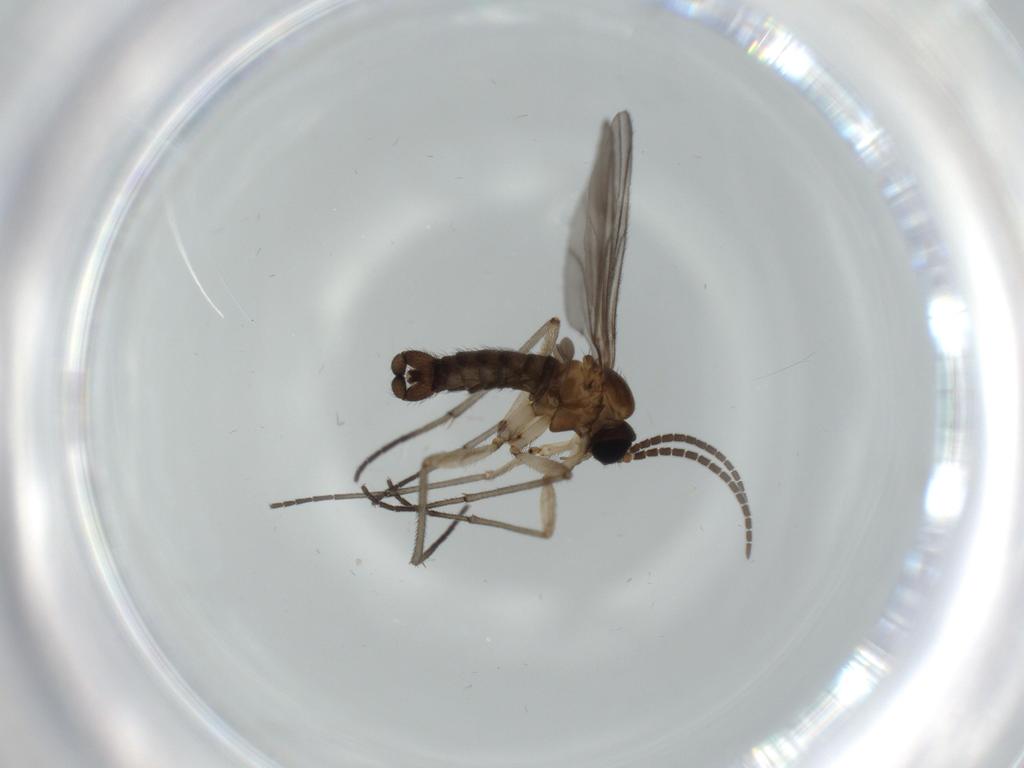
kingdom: Animalia
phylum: Arthropoda
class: Insecta
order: Diptera
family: Sciaridae
